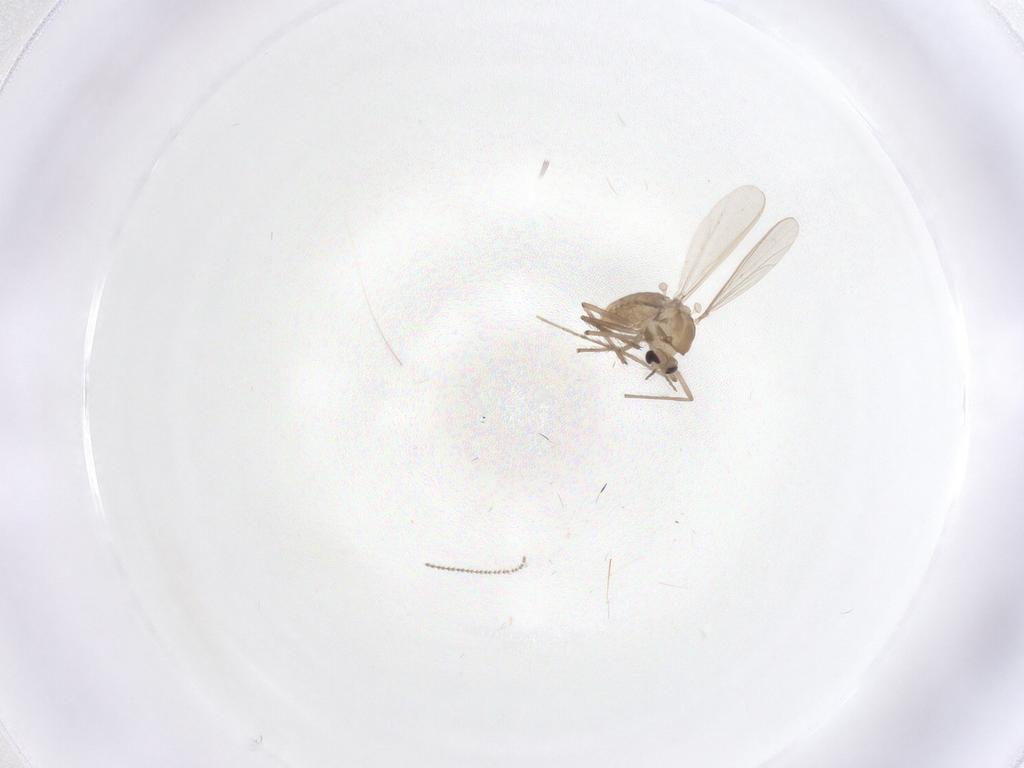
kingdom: Animalia
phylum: Arthropoda
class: Insecta
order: Diptera
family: Chironomidae
